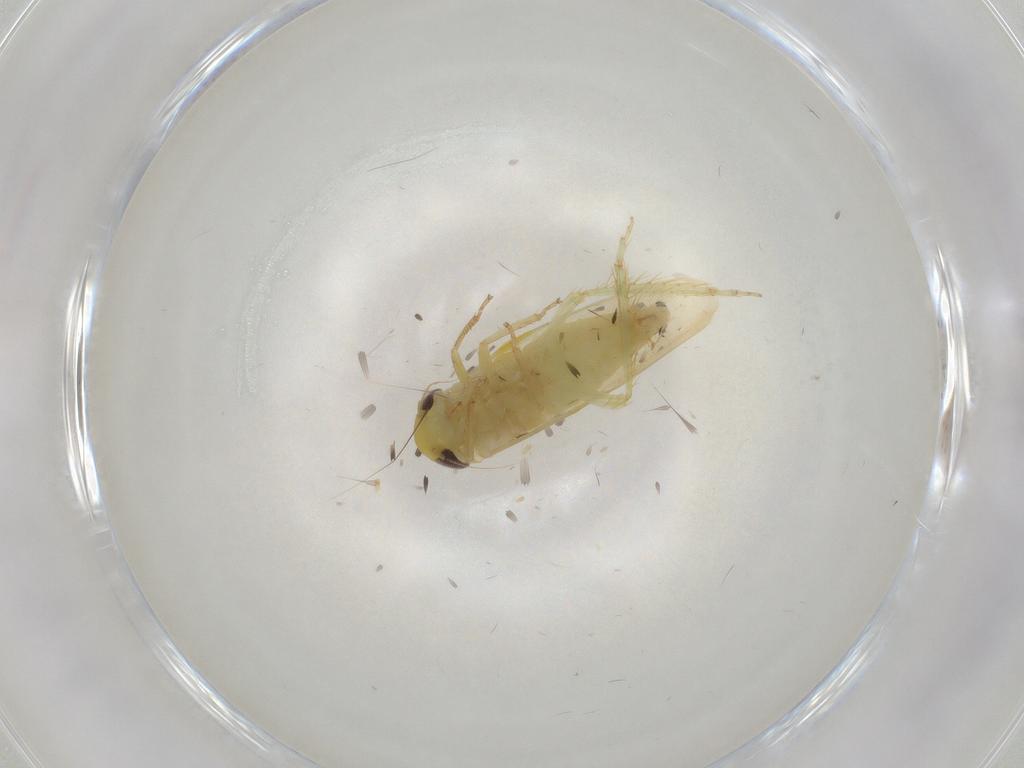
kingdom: Animalia
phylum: Arthropoda
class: Insecta
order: Hemiptera
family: Cicadellidae
